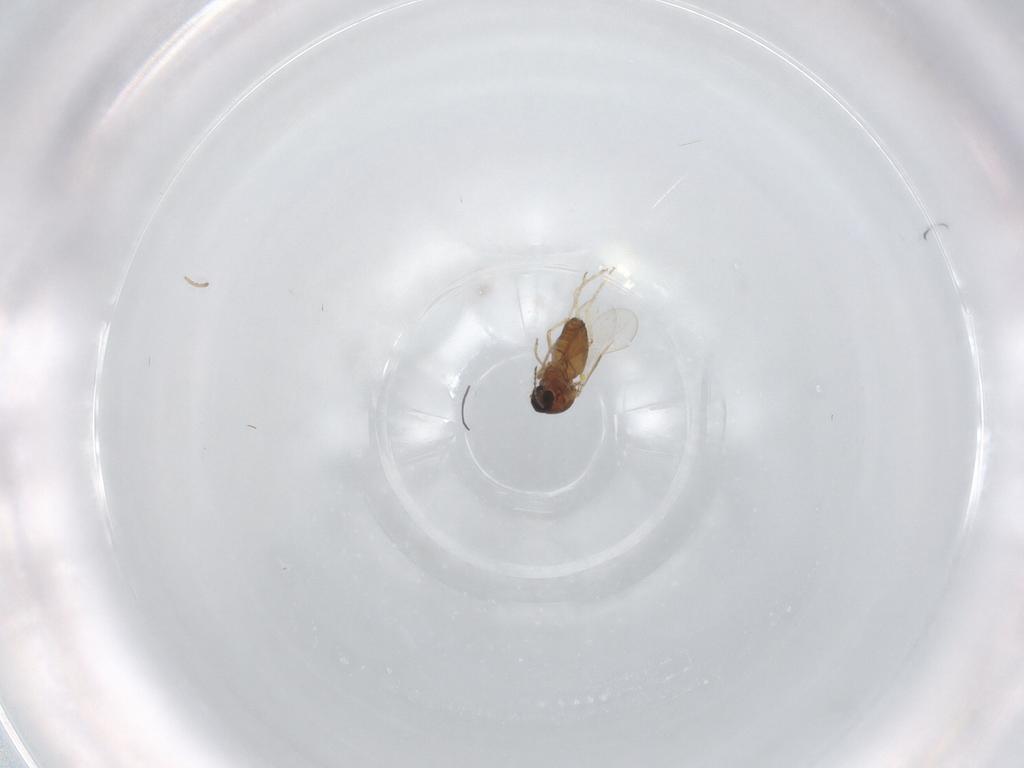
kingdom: Animalia
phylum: Arthropoda
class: Insecta
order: Diptera
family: Cecidomyiidae
